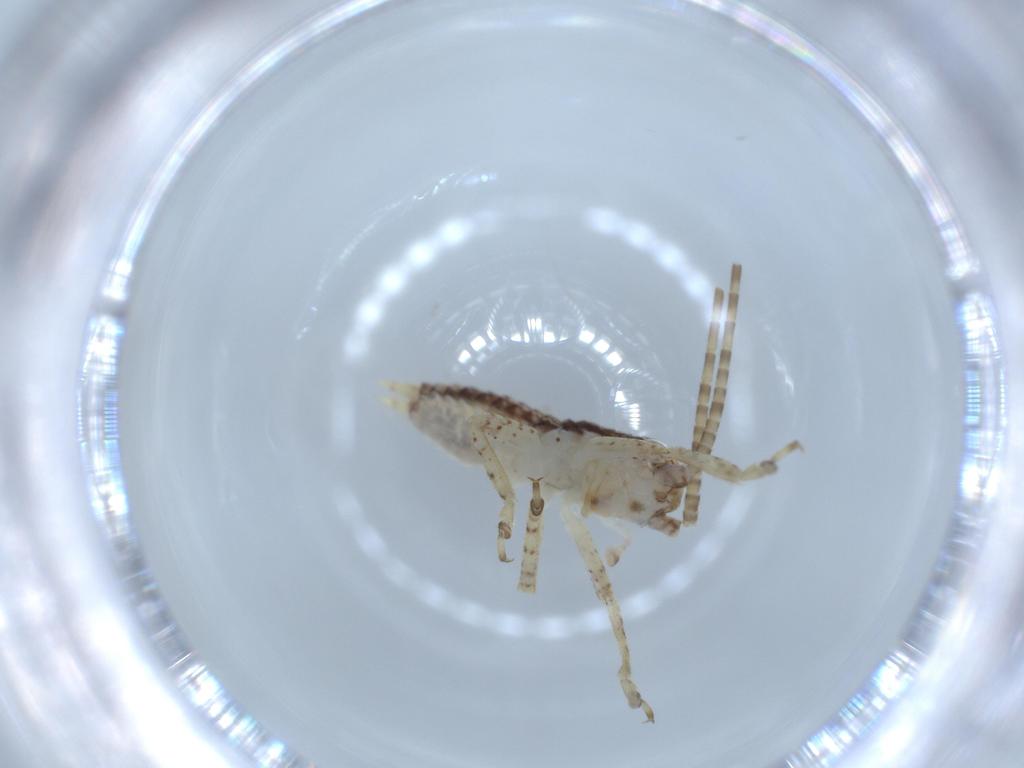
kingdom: Animalia
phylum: Arthropoda
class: Insecta
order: Orthoptera
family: Gryllidae
